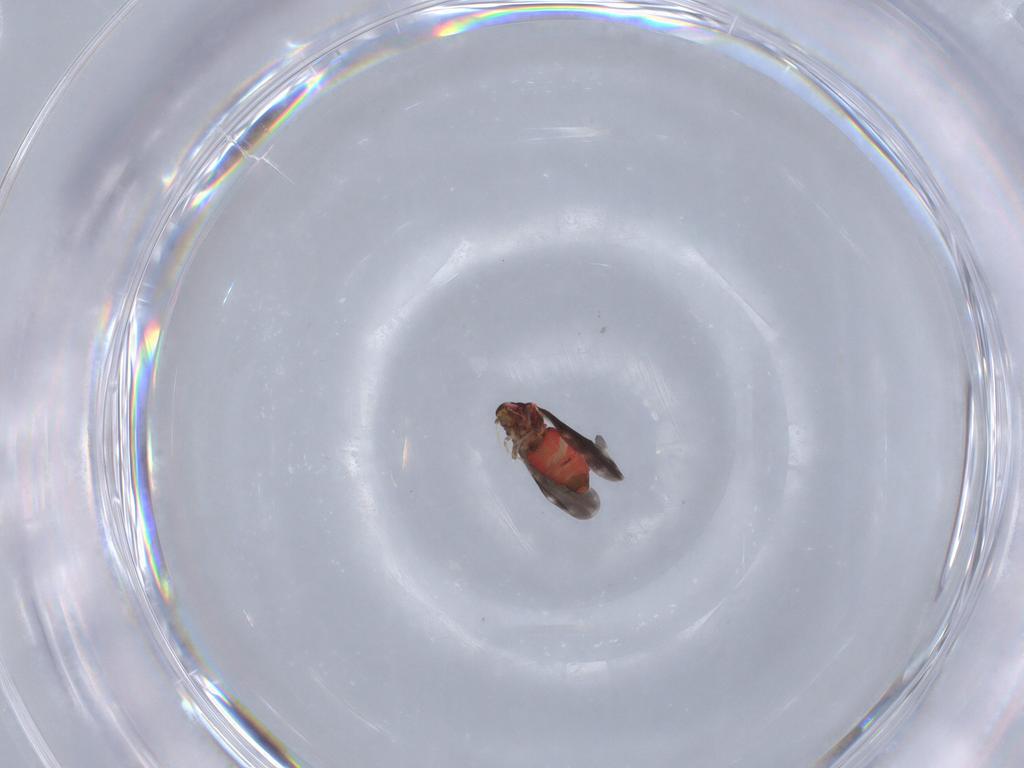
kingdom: Animalia
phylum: Arthropoda
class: Insecta
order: Hemiptera
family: Aleyrodidae
